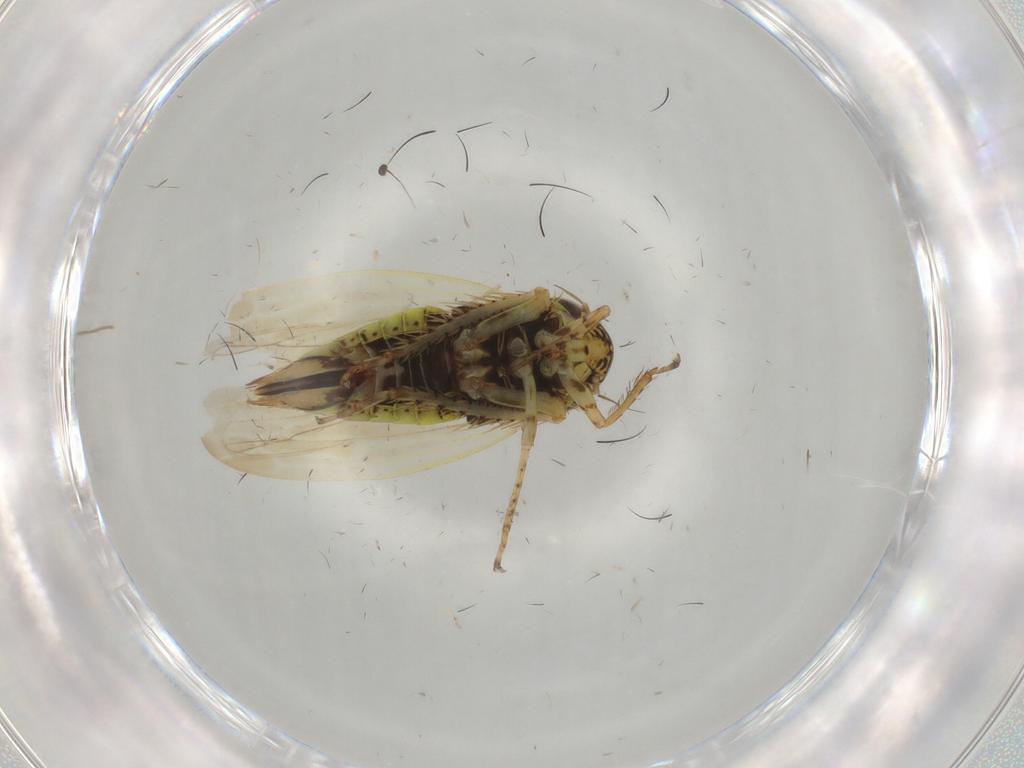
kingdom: Animalia
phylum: Arthropoda
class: Insecta
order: Hemiptera
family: Cicadellidae
